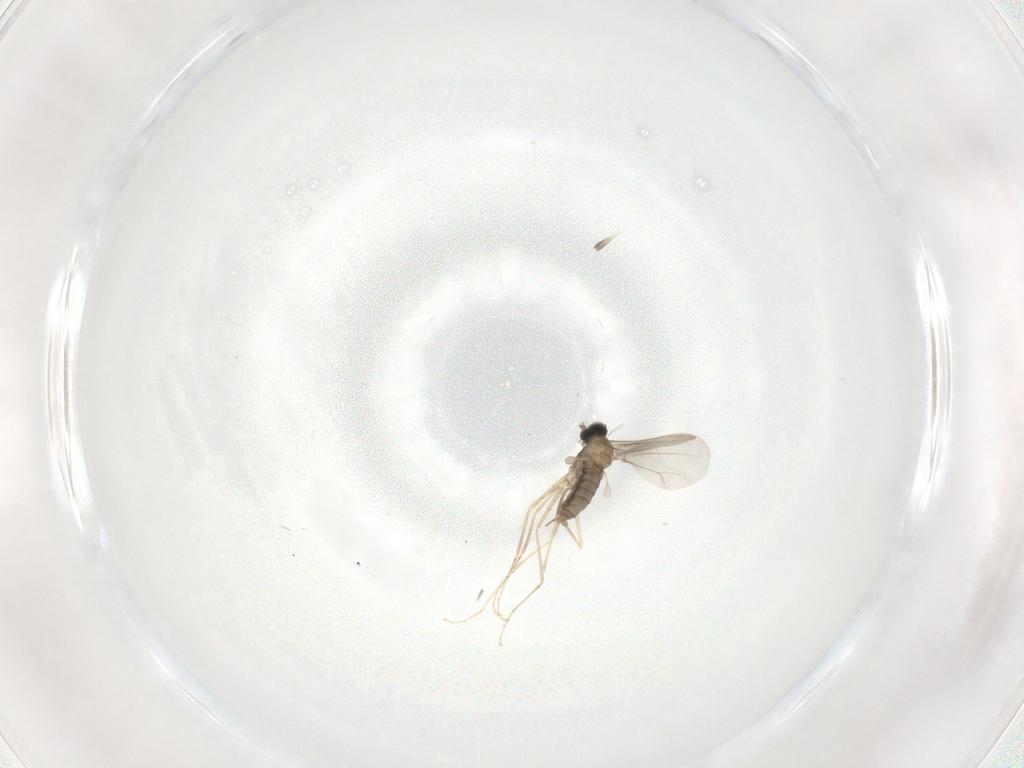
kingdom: Animalia
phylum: Arthropoda
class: Insecta
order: Diptera
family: Cecidomyiidae
